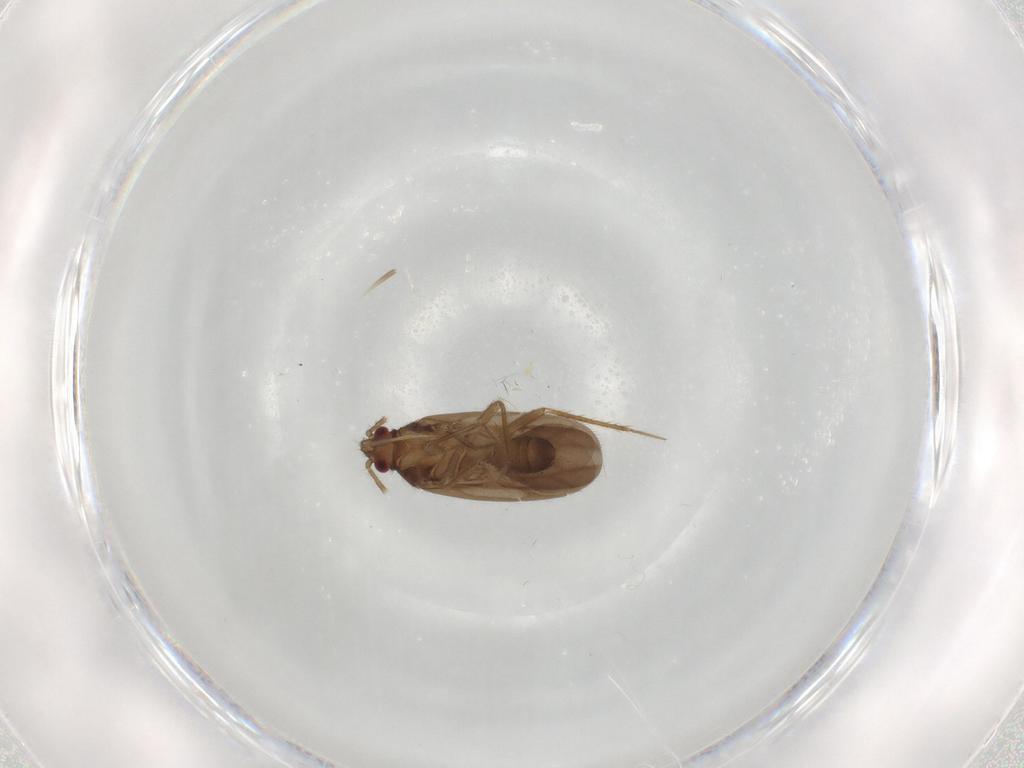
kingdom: Animalia
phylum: Arthropoda
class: Insecta
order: Hemiptera
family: Ceratocombidae
